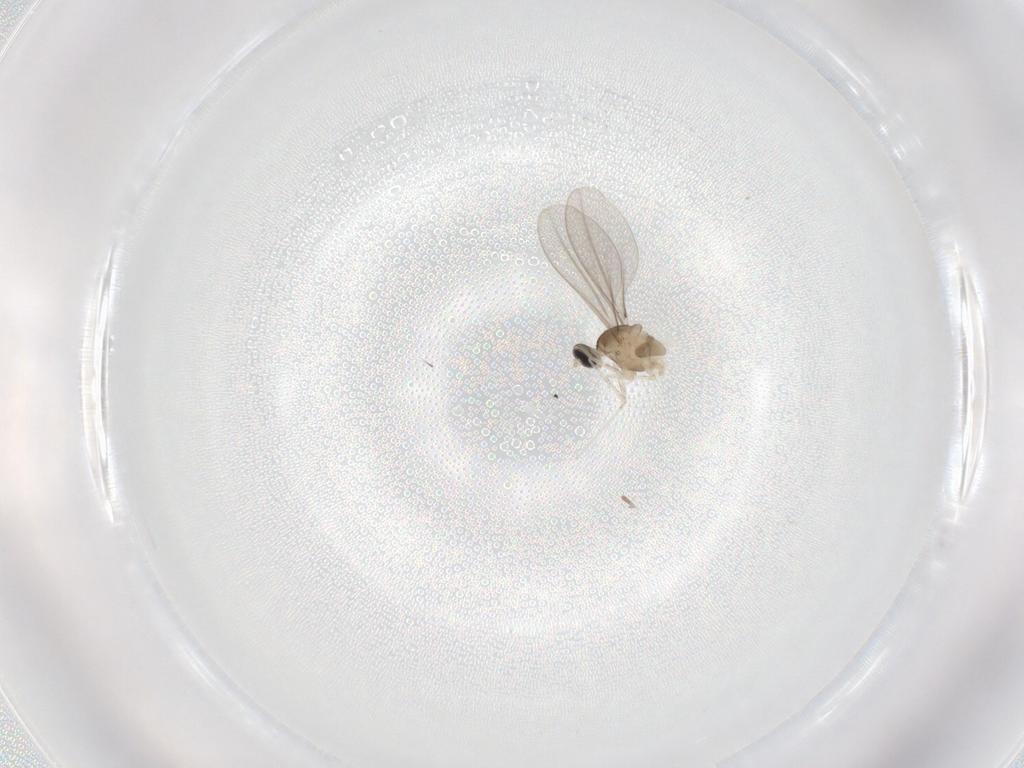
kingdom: Animalia
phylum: Arthropoda
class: Insecta
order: Diptera
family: Cecidomyiidae
